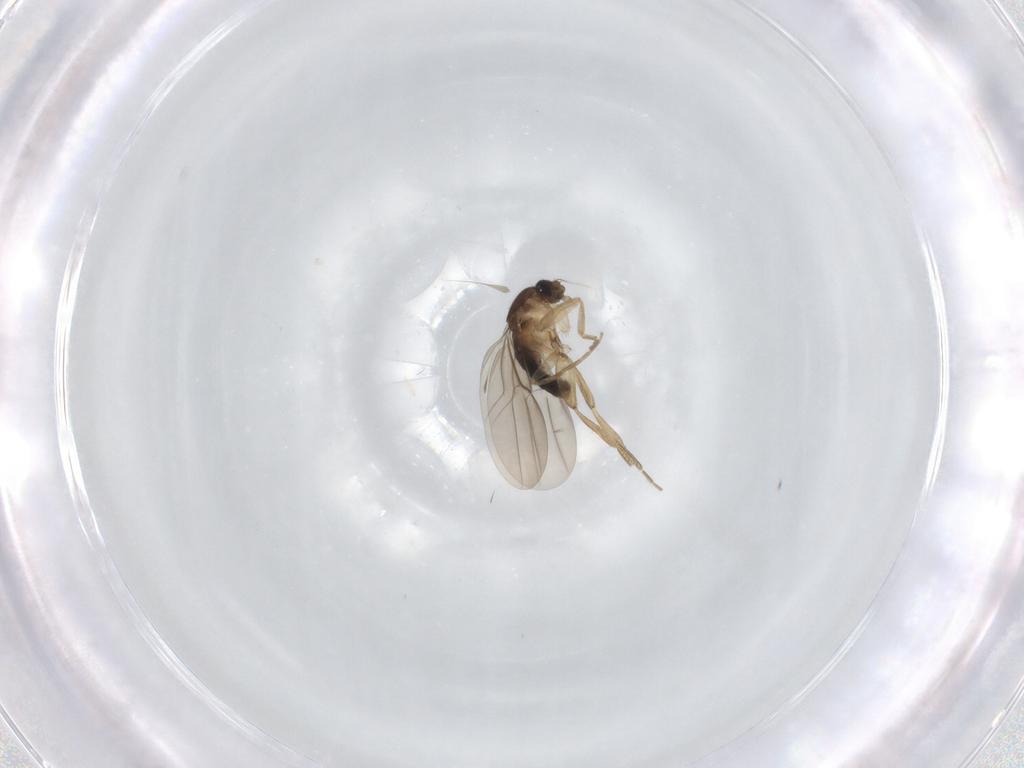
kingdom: Animalia
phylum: Arthropoda
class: Insecta
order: Diptera
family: Phoridae
